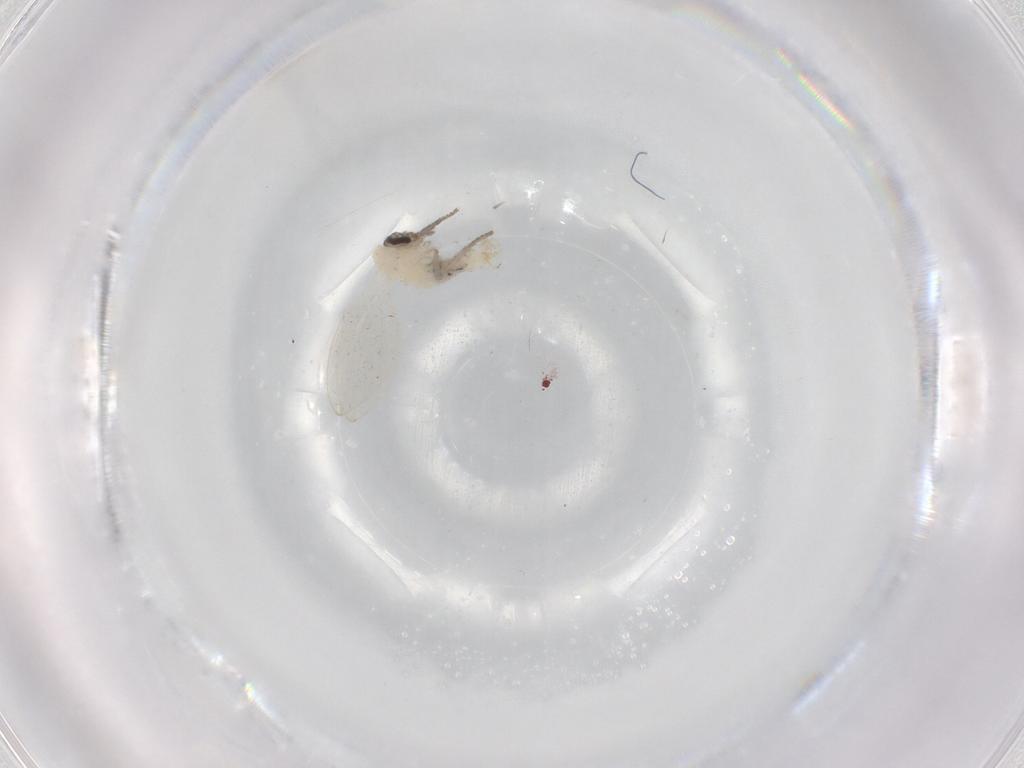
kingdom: Animalia
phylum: Arthropoda
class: Insecta
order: Diptera
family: Psychodidae
